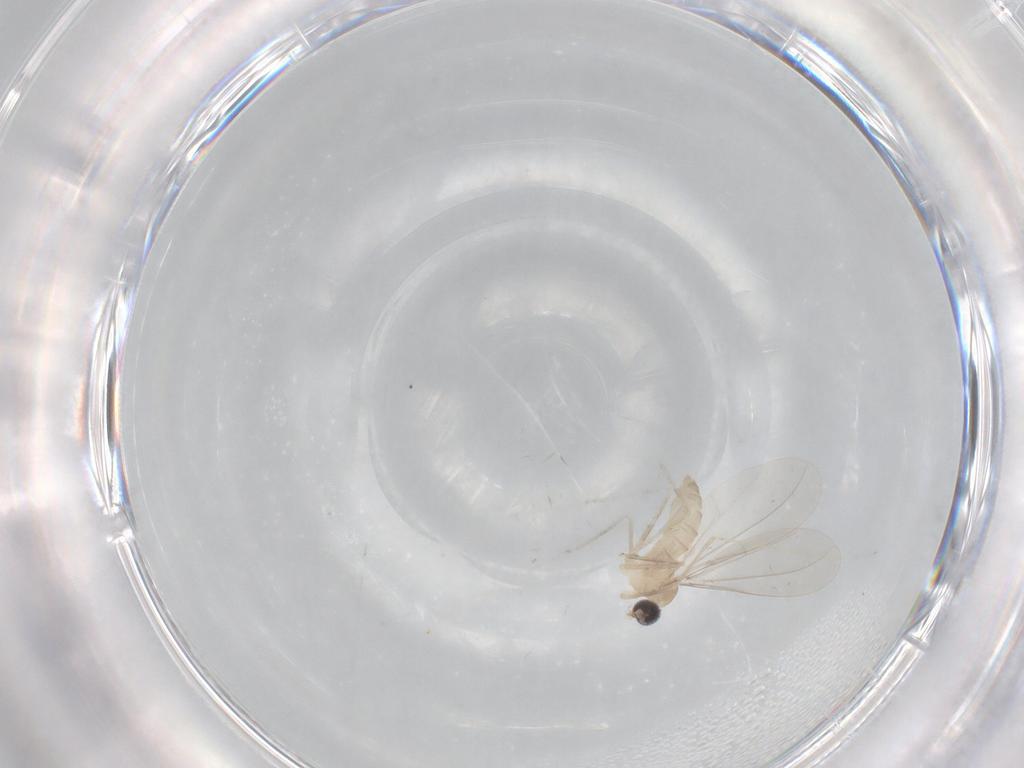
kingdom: Animalia
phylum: Arthropoda
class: Insecta
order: Diptera
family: Cecidomyiidae
